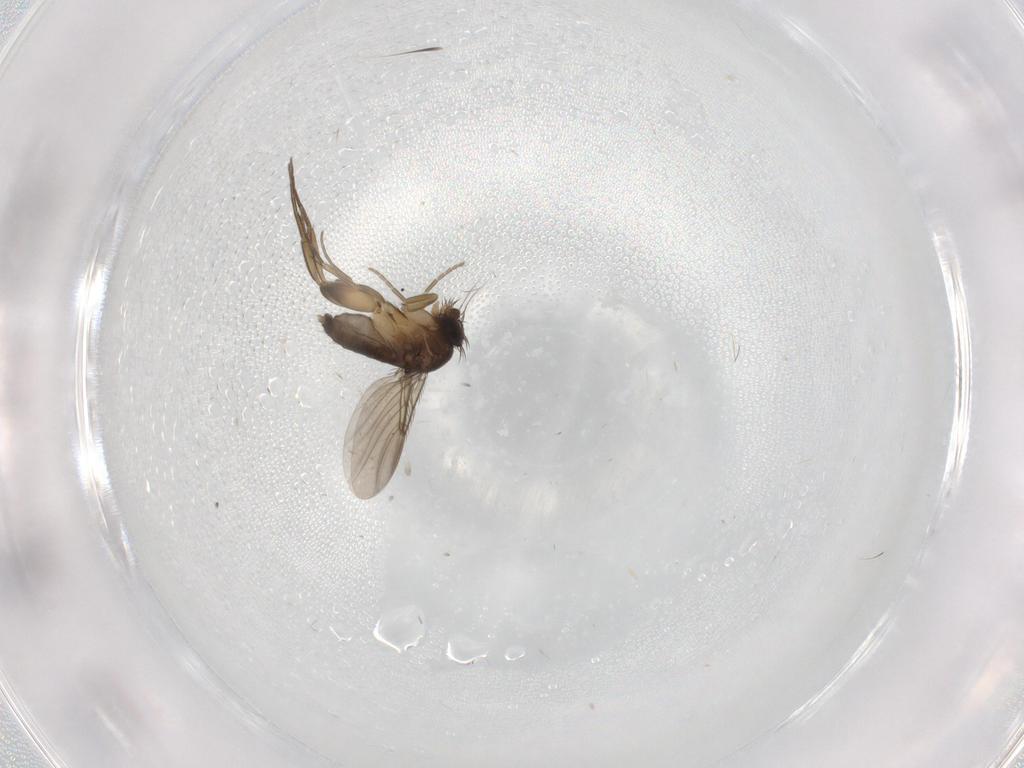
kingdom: Animalia
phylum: Arthropoda
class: Insecta
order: Diptera
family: Phoridae
